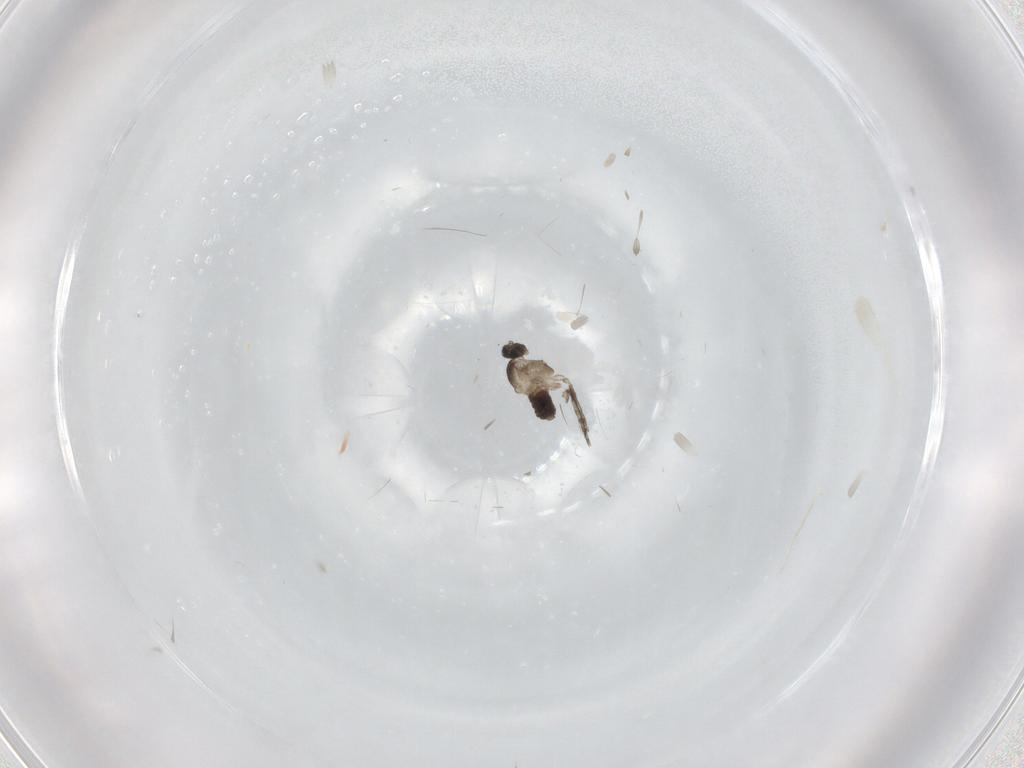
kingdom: Animalia
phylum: Arthropoda
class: Insecta
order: Diptera
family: Cecidomyiidae
